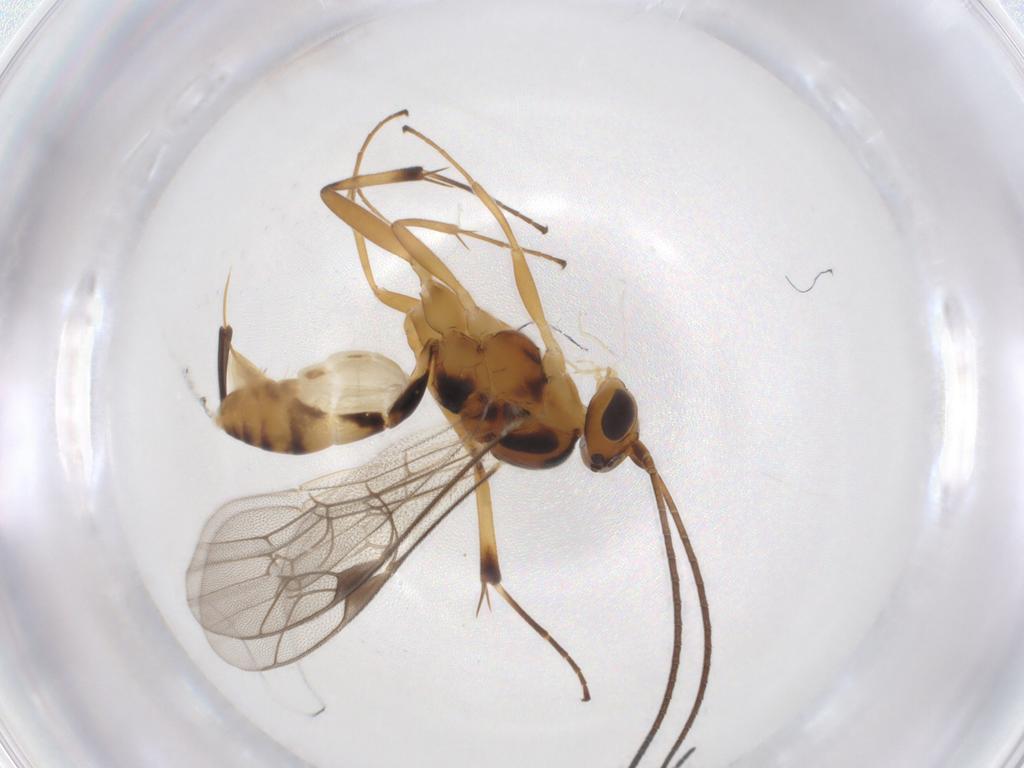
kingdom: Animalia
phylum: Arthropoda
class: Insecta
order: Hymenoptera
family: Ichneumonidae
